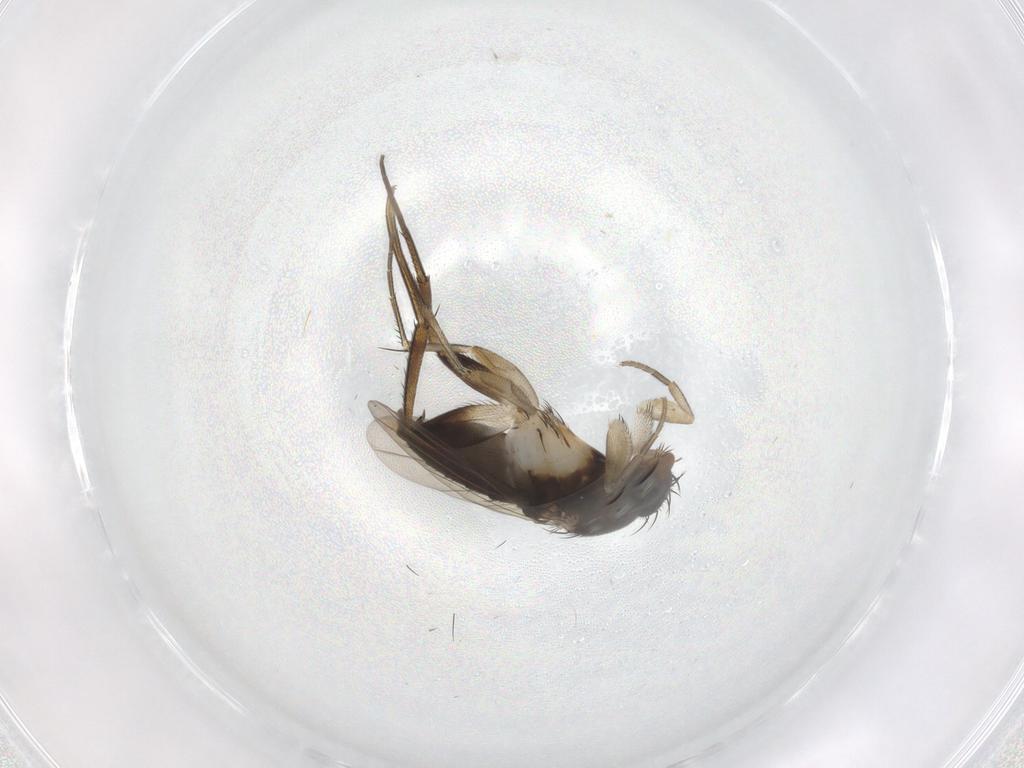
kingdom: Animalia
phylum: Arthropoda
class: Insecta
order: Diptera
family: Phoridae
